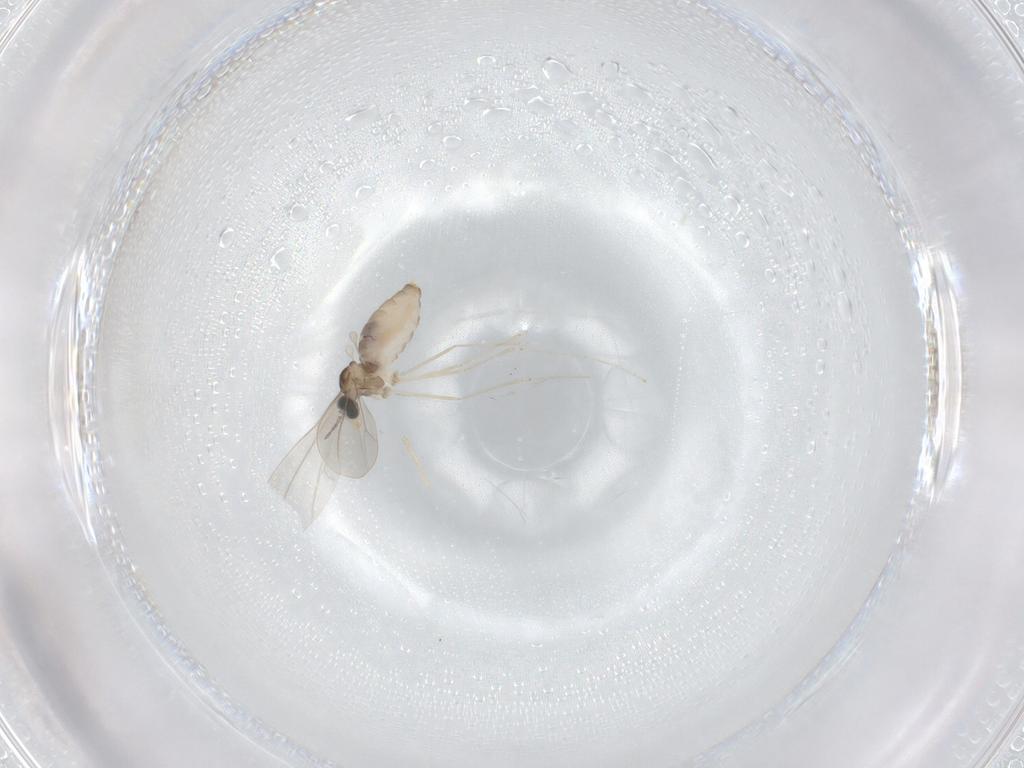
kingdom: Animalia
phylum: Arthropoda
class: Insecta
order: Diptera
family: Cecidomyiidae
